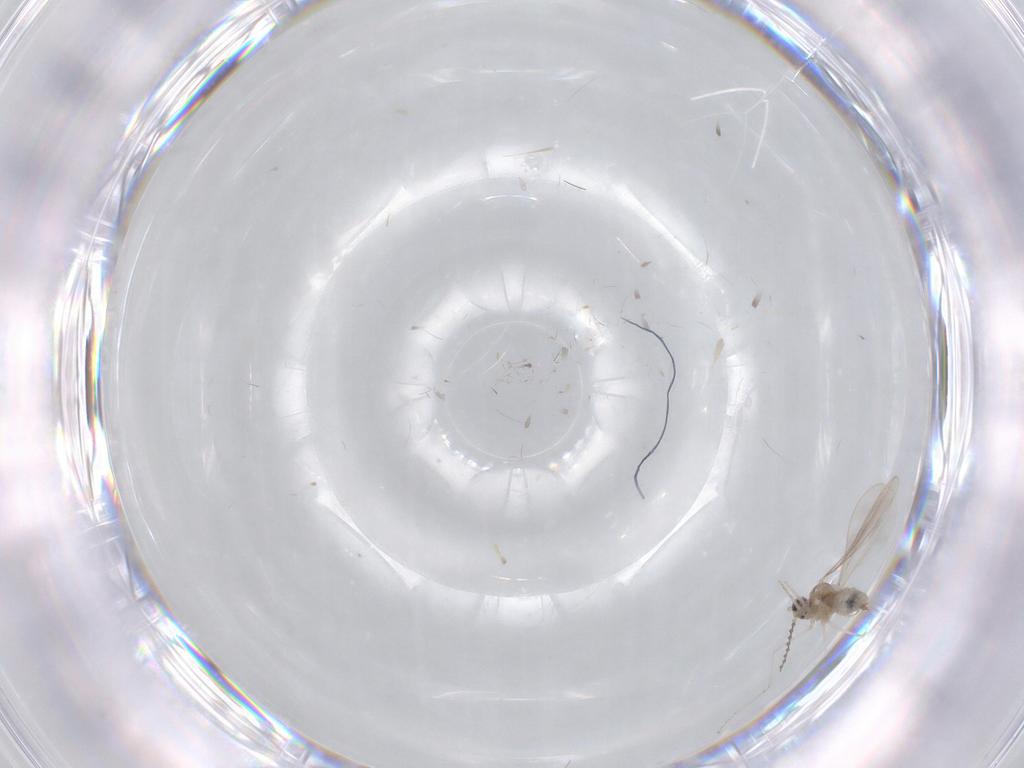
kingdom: Animalia
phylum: Arthropoda
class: Insecta
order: Diptera
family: Cecidomyiidae
